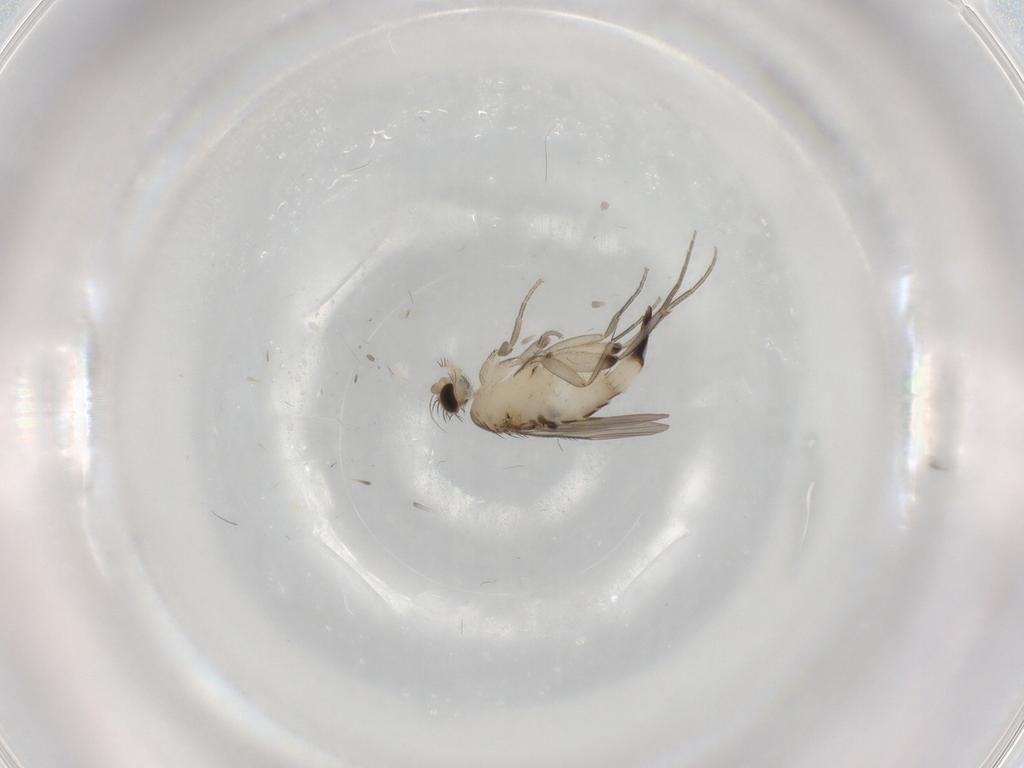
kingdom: Animalia
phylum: Arthropoda
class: Insecta
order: Diptera
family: Phoridae
